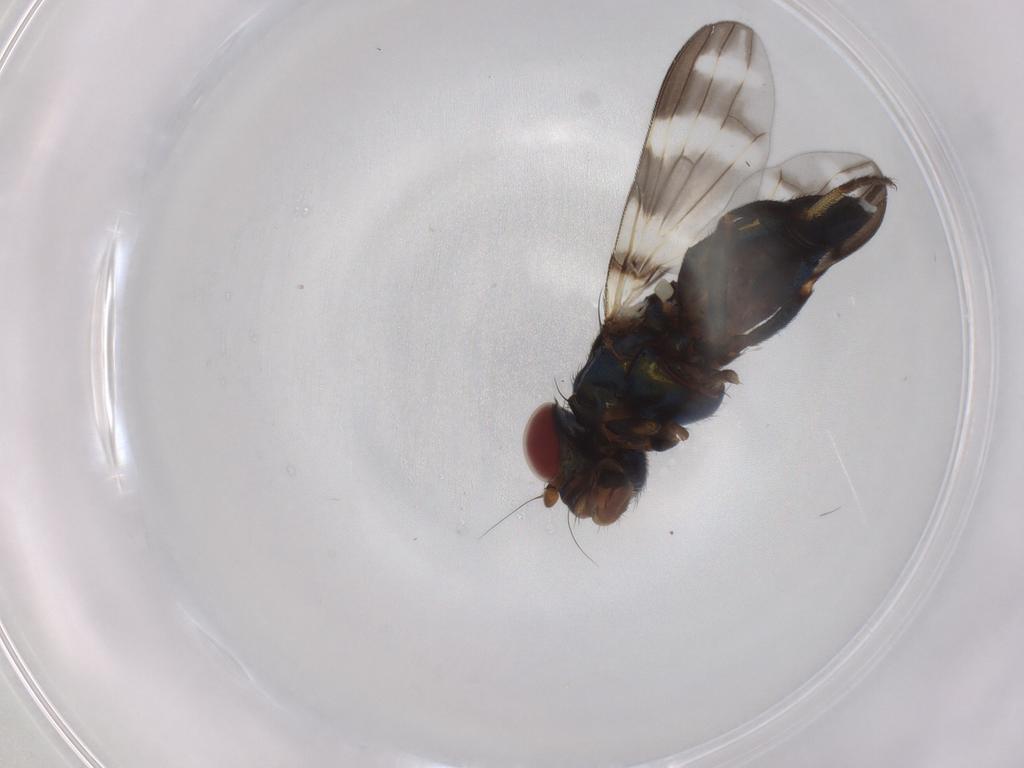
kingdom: Animalia
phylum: Arthropoda
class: Insecta
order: Diptera
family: Ulidiidae
